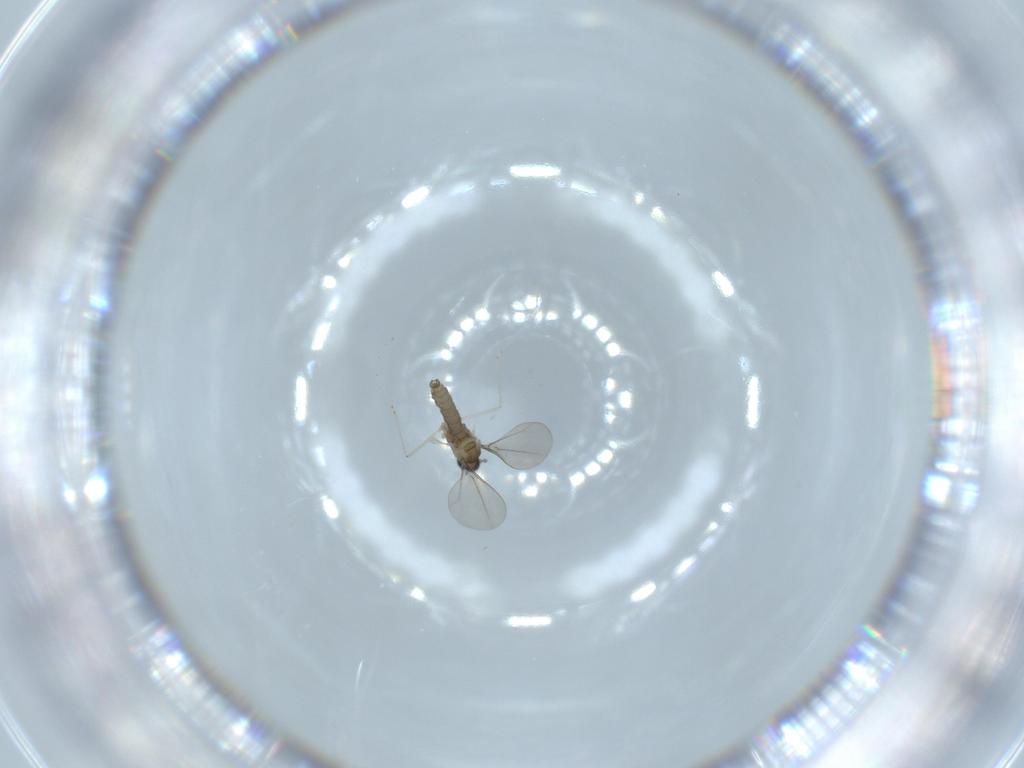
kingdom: Animalia
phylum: Arthropoda
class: Insecta
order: Diptera
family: Cecidomyiidae
